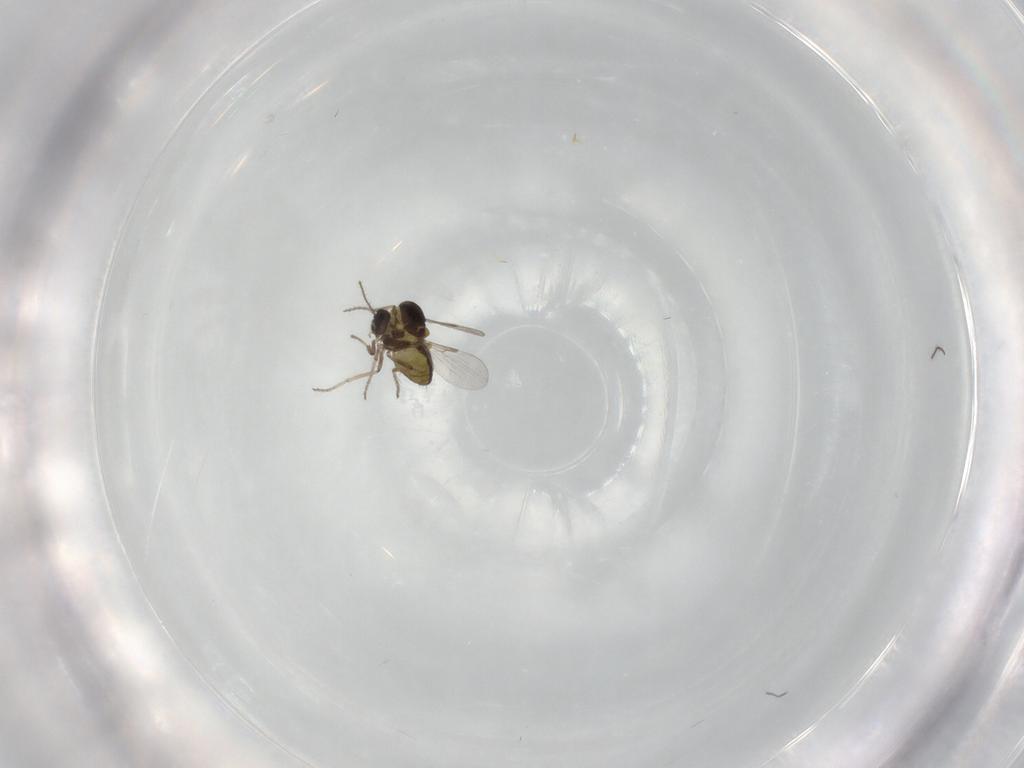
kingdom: Animalia
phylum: Arthropoda
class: Insecta
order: Diptera
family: Ceratopogonidae
